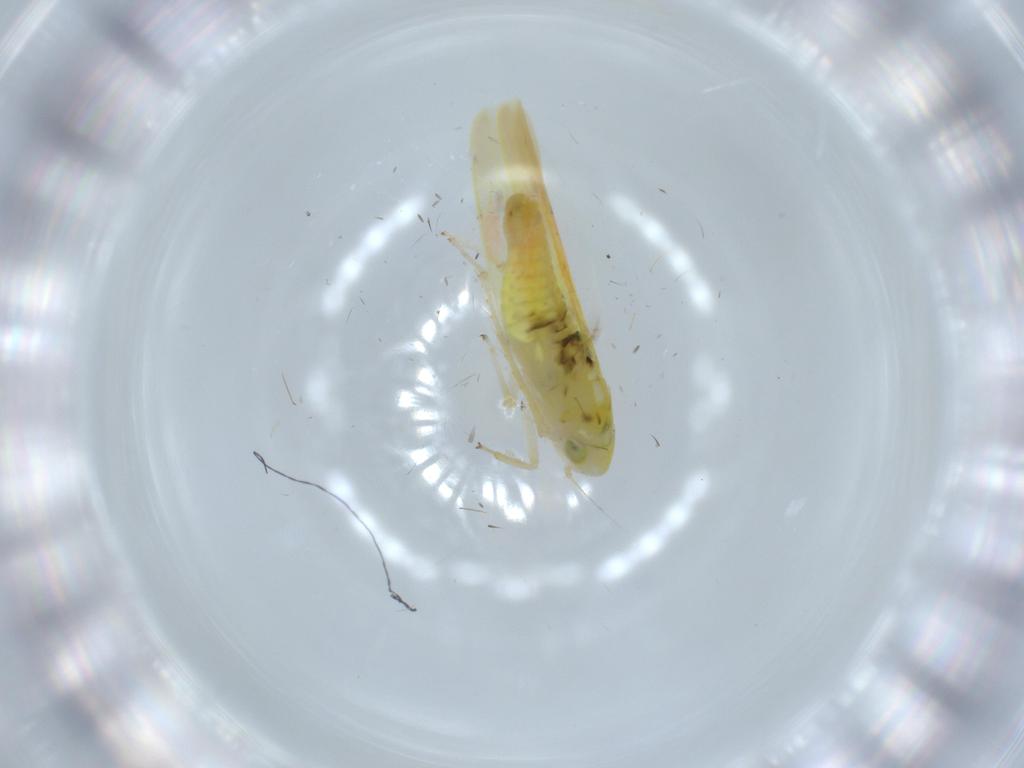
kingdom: Animalia
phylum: Arthropoda
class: Insecta
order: Hemiptera
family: Cicadellidae
